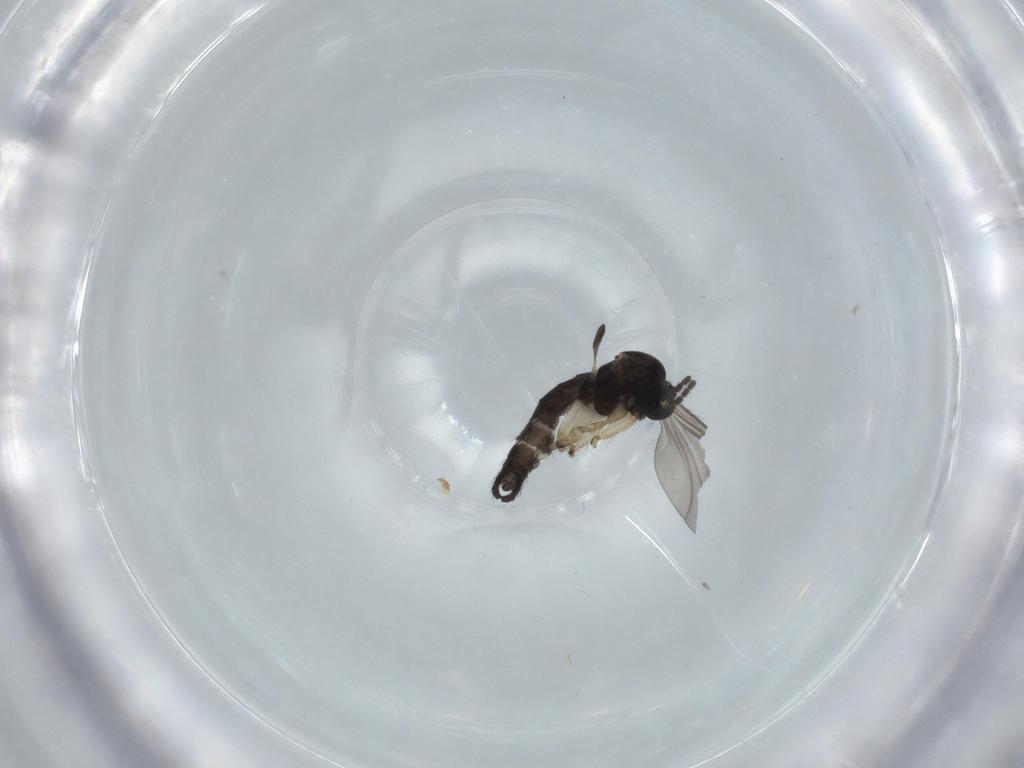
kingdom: Animalia
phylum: Arthropoda
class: Insecta
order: Diptera
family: Sciaridae
